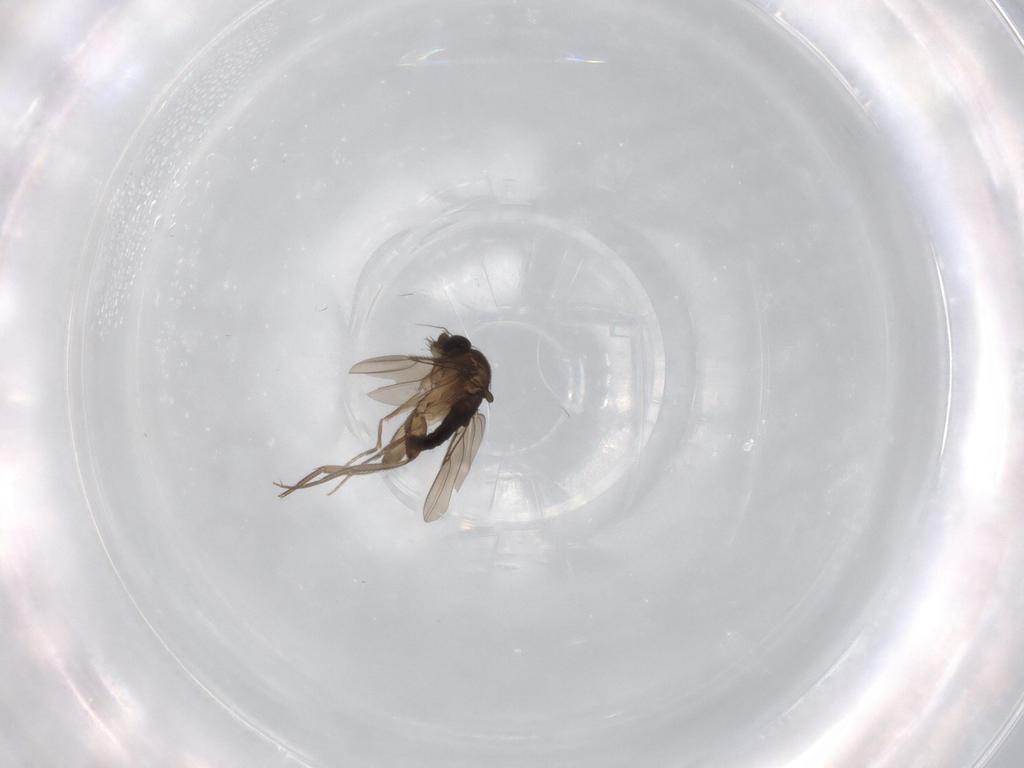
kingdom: Animalia
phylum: Arthropoda
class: Insecta
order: Diptera
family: Phoridae
